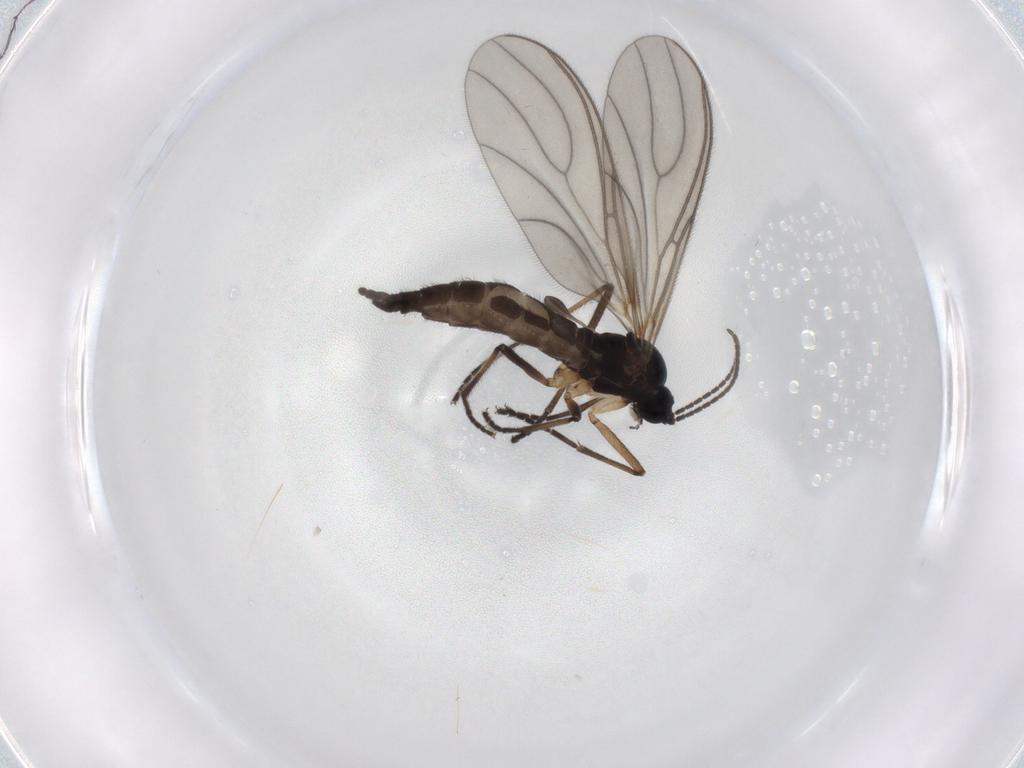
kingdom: Animalia
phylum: Arthropoda
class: Insecta
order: Diptera
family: Sciaridae
